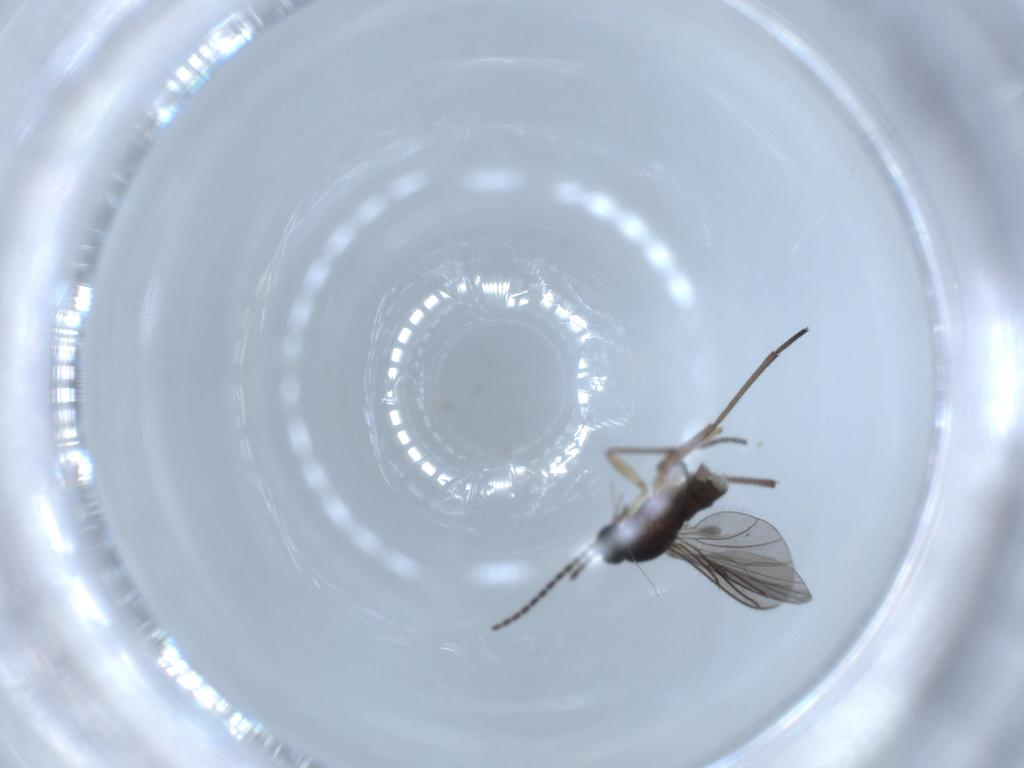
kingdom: Animalia
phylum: Arthropoda
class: Insecta
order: Diptera
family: Sciaridae
